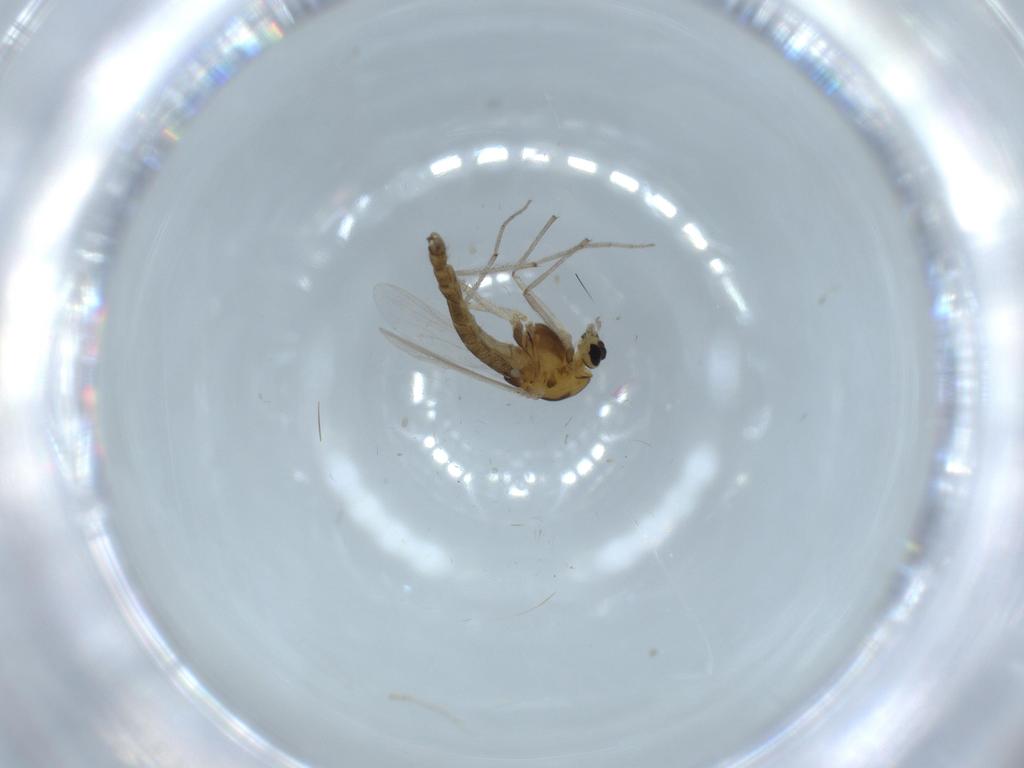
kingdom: Animalia
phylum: Arthropoda
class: Insecta
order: Diptera
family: Chironomidae
